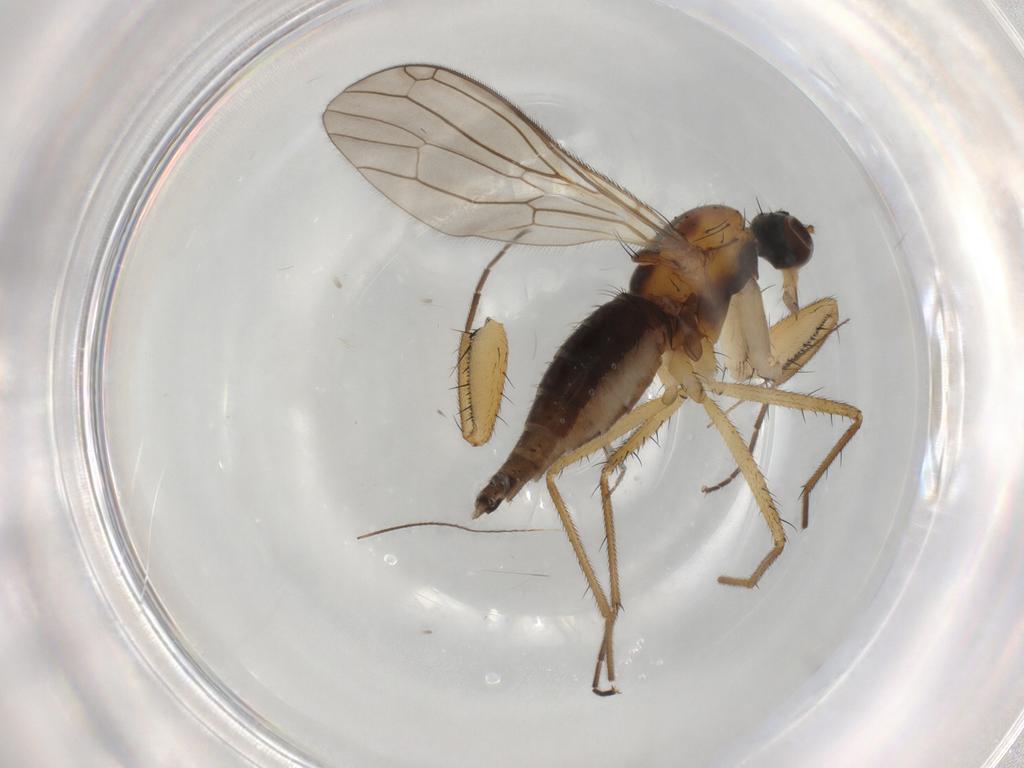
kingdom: Animalia
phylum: Arthropoda
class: Insecta
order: Diptera
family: Psychodidae
